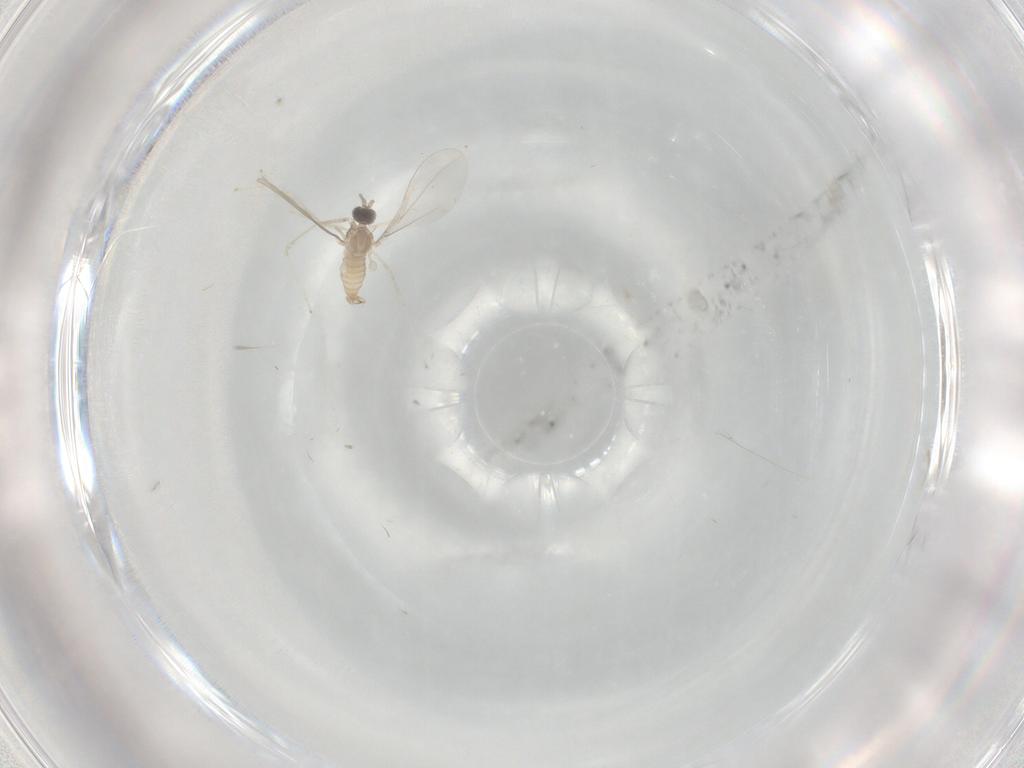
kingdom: Animalia
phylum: Arthropoda
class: Insecta
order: Diptera
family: Cecidomyiidae
